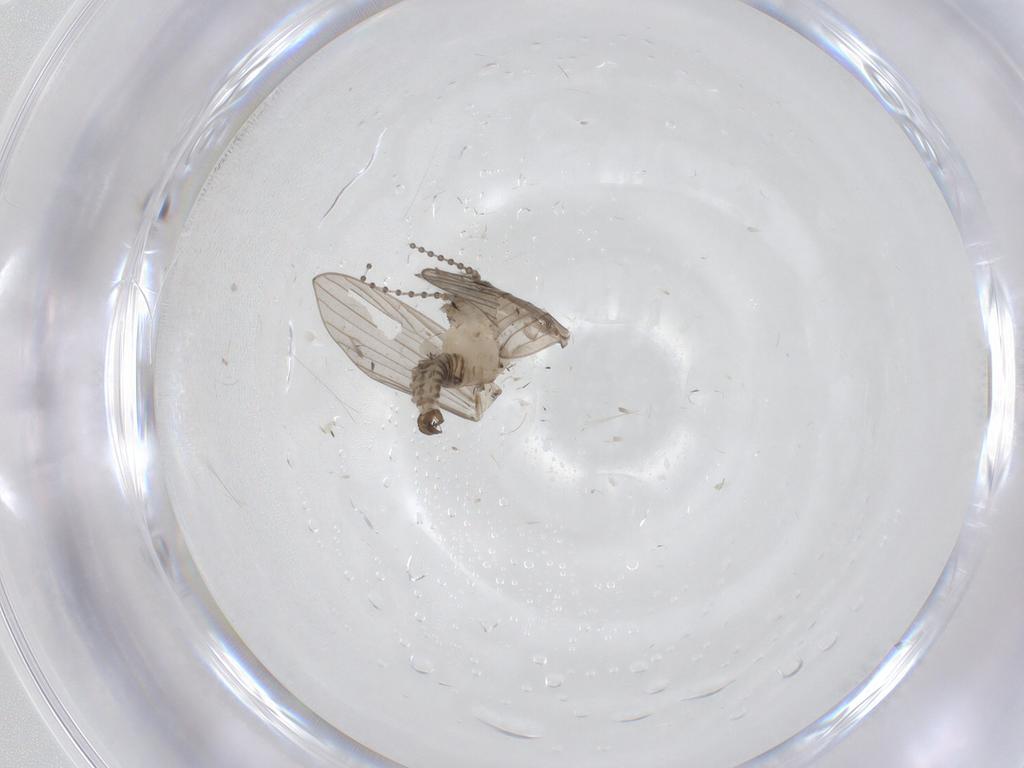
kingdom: Animalia
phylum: Arthropoda
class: Insecta
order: Diptera
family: Psychodidae
